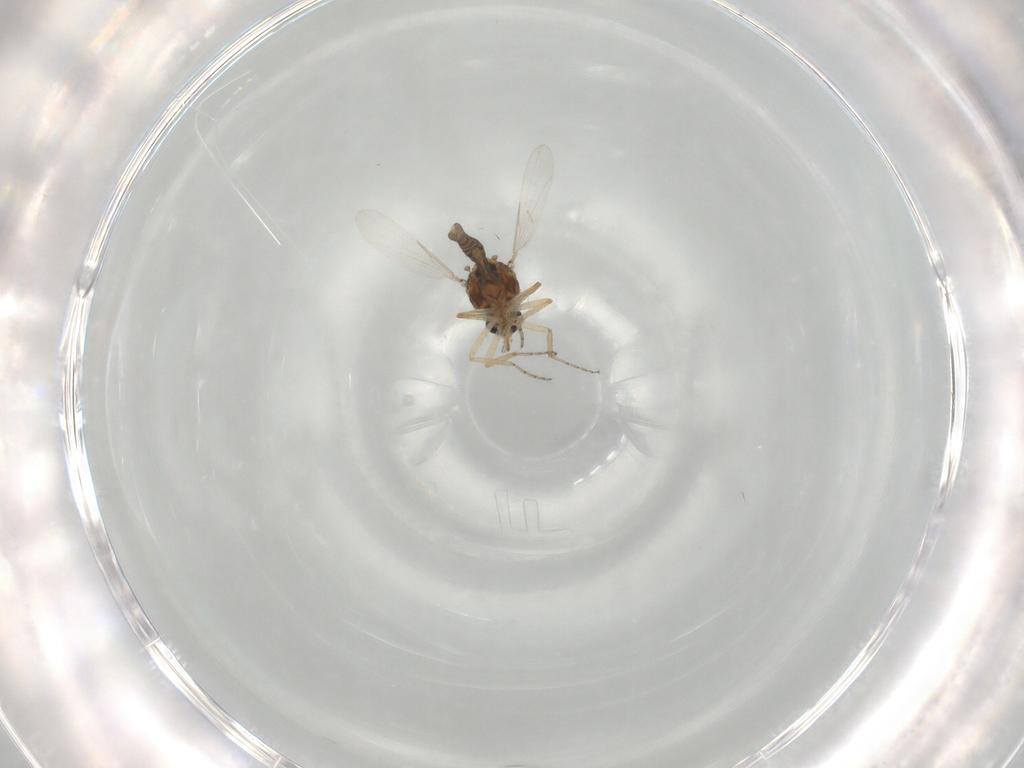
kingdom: Animalia
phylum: Arthropoda
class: Insecta
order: Diptera
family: Ceratopogonidae
